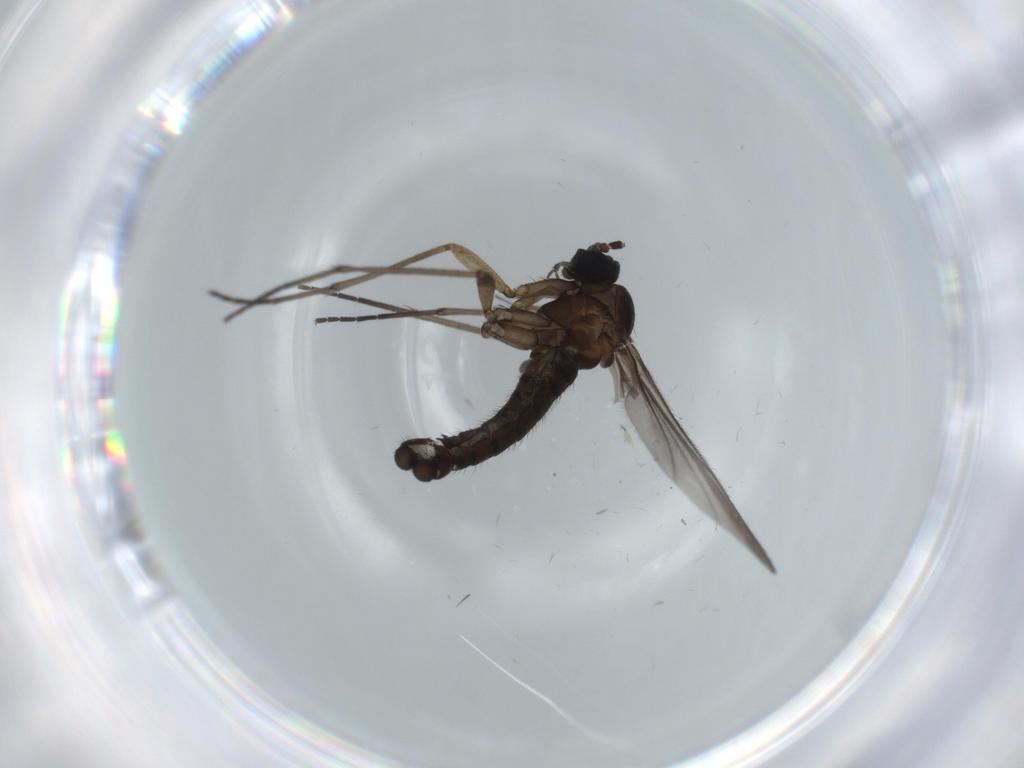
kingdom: Animalia
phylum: Arthropoda
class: Insecta
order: Diptera
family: Sciaridae
